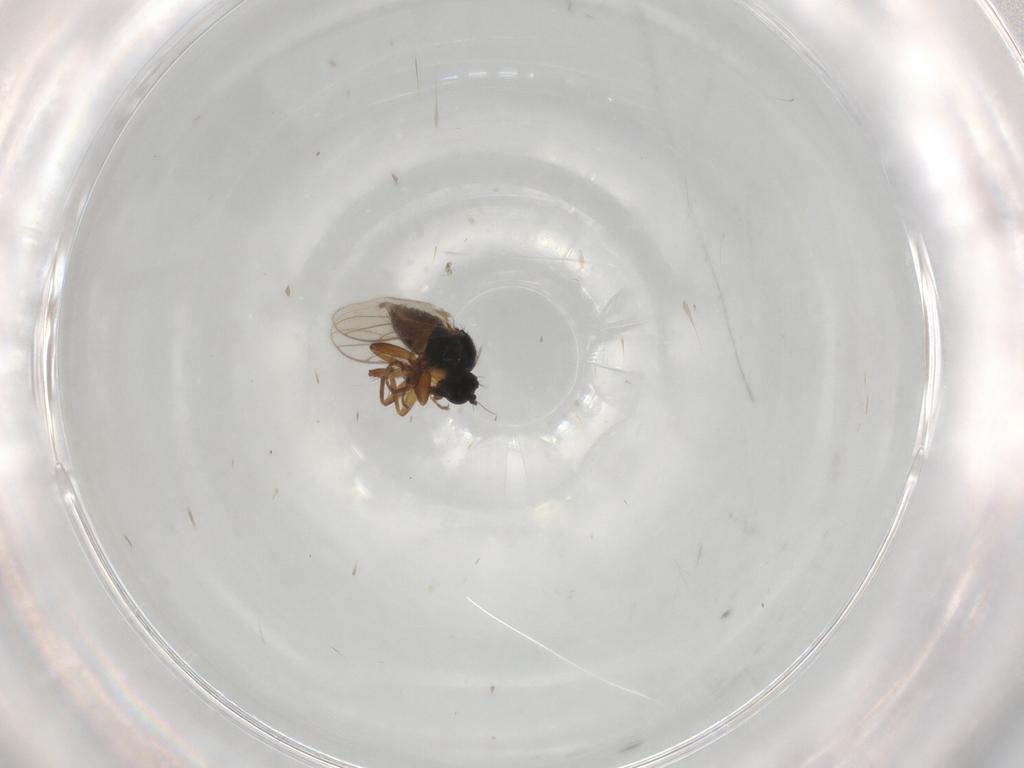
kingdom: Animalia
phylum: Arthropoda
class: Insecta
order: Diptera
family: Hybotidae
